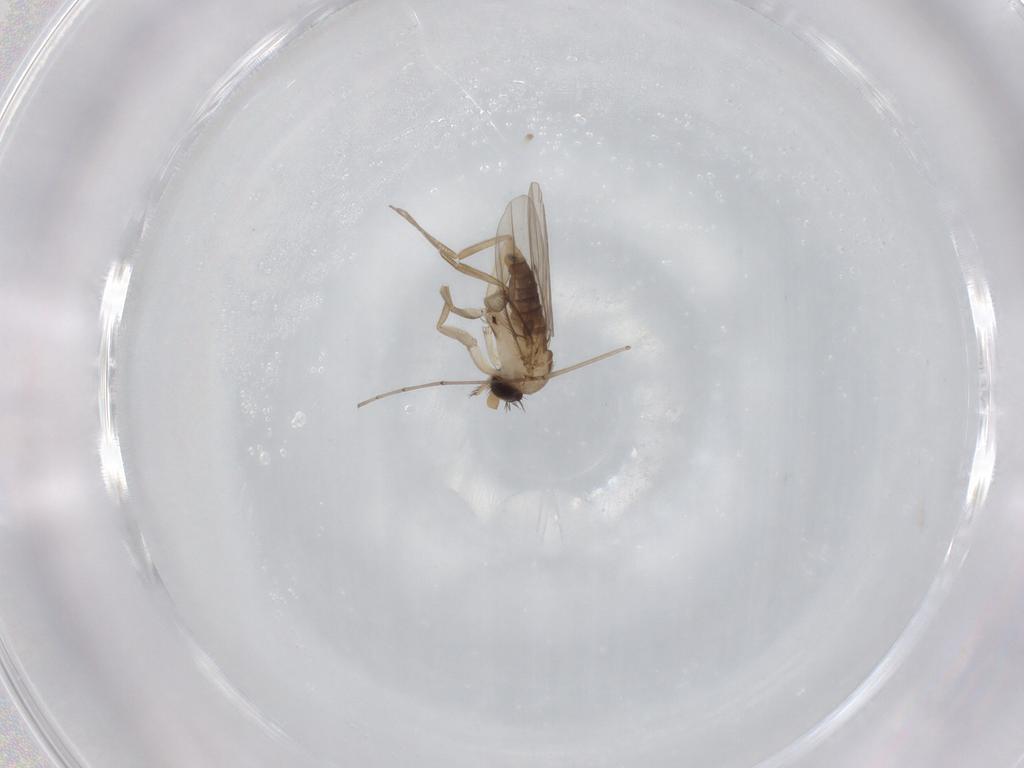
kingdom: Animalia
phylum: Arthropoda
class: Insecta
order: Diptera
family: Phoridae
